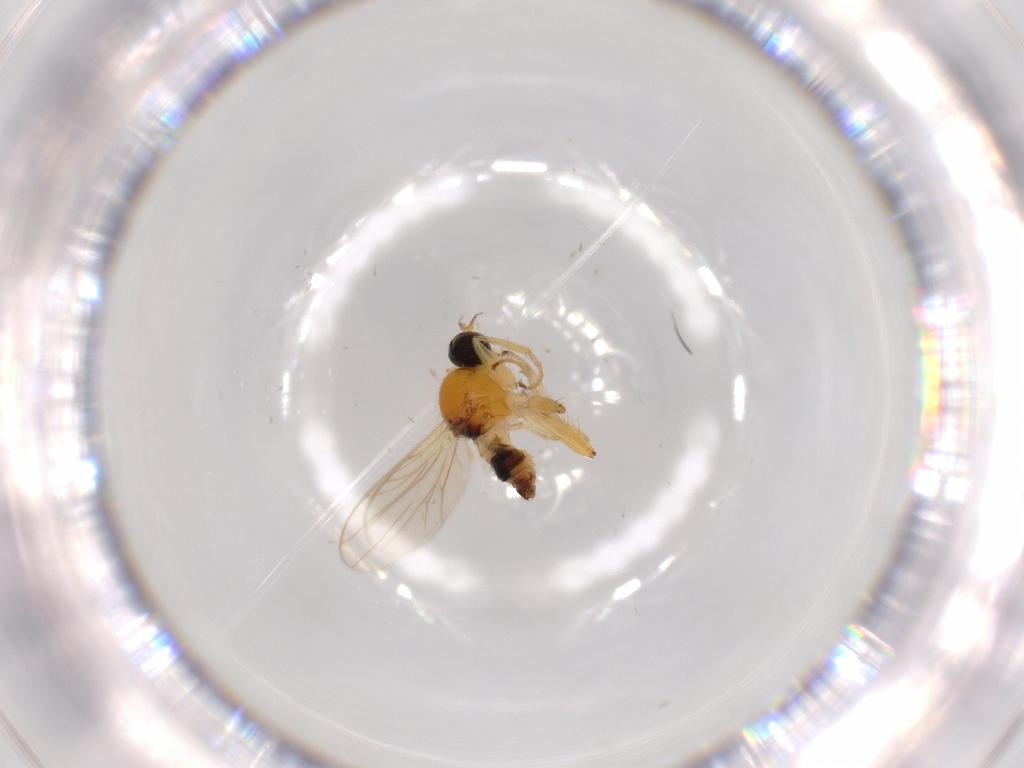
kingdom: Animalia
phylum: Arthropoda
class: Insecta
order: Diptera
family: Hybotidae
